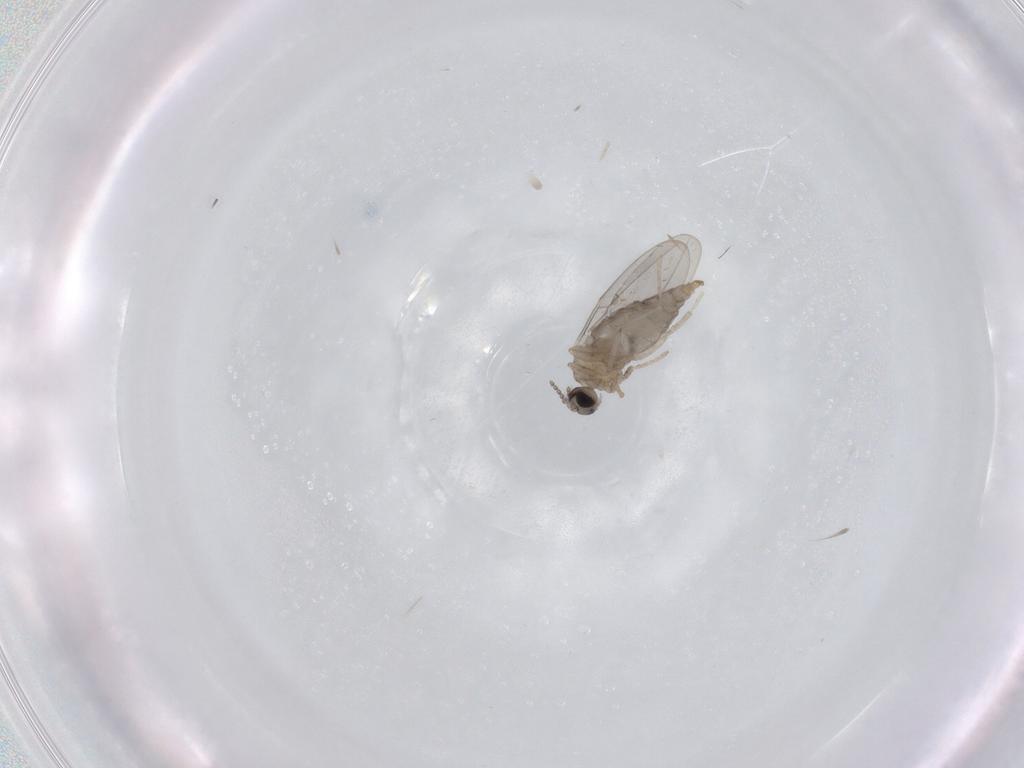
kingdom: Animalia
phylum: Arthropoda
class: Insecta
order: Diptera
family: Cecidomyiidae
